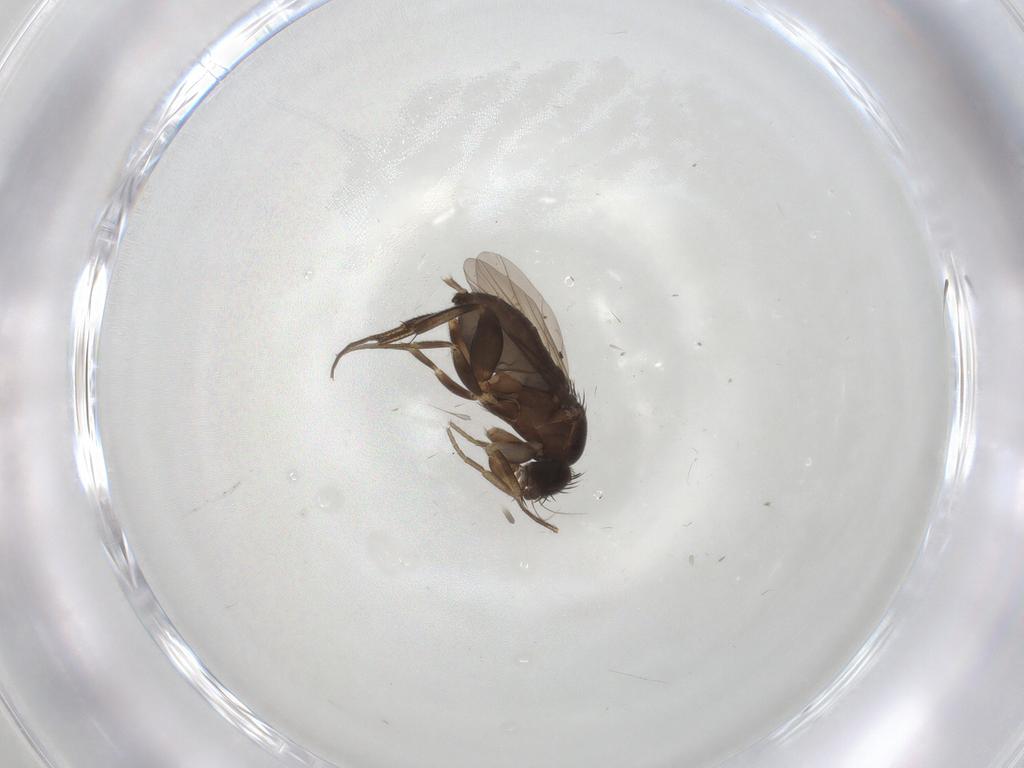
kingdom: Animalia
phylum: Arthropoda
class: Insecta
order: Diptera
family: Phoridae
